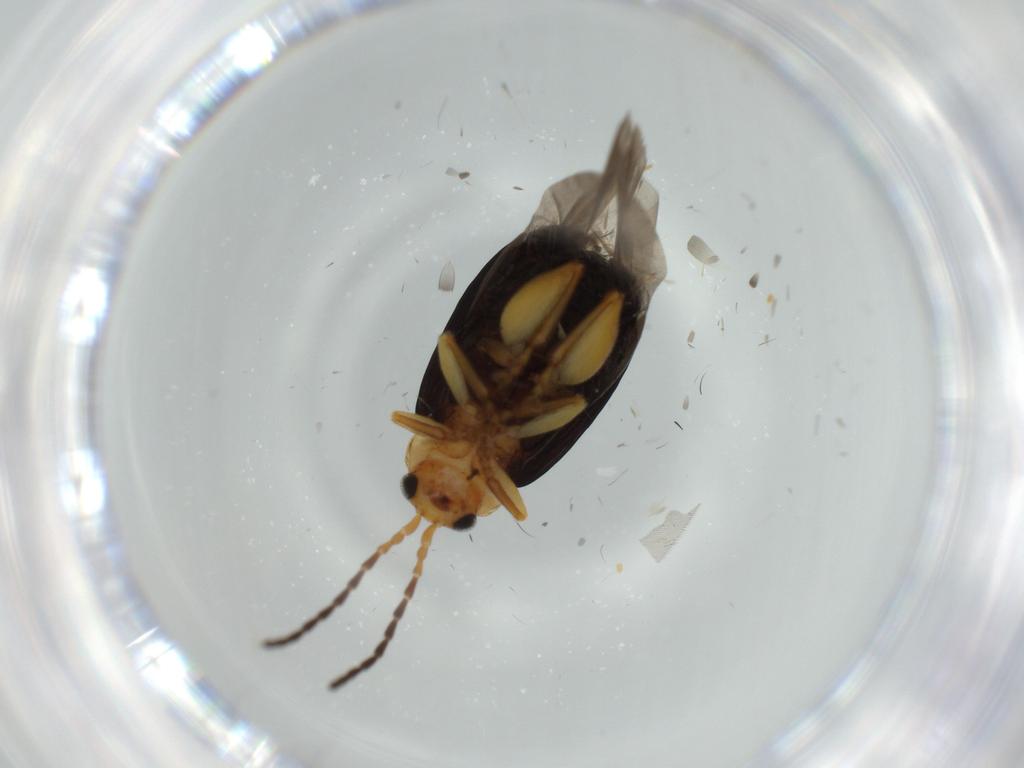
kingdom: Animalia
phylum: Arthropoda
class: Insecta
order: Coleoptera
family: Chrysomelidae
